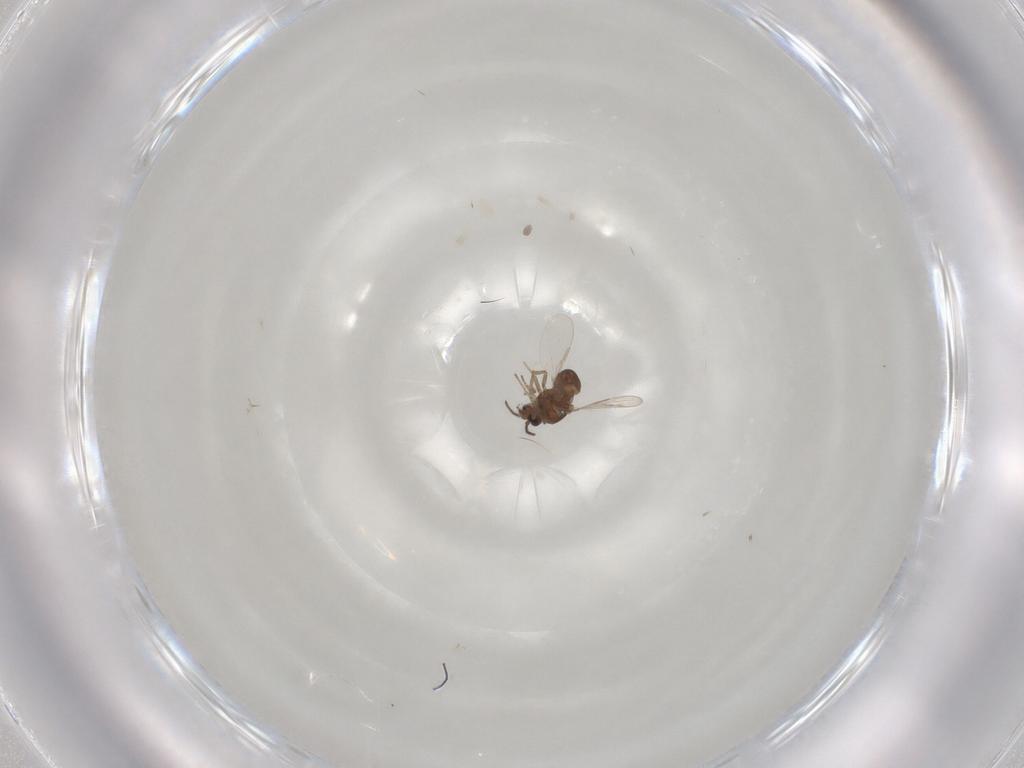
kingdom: Animalia
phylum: Arthropoda
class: Insecta
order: Diptera
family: Ceratopogonidae
